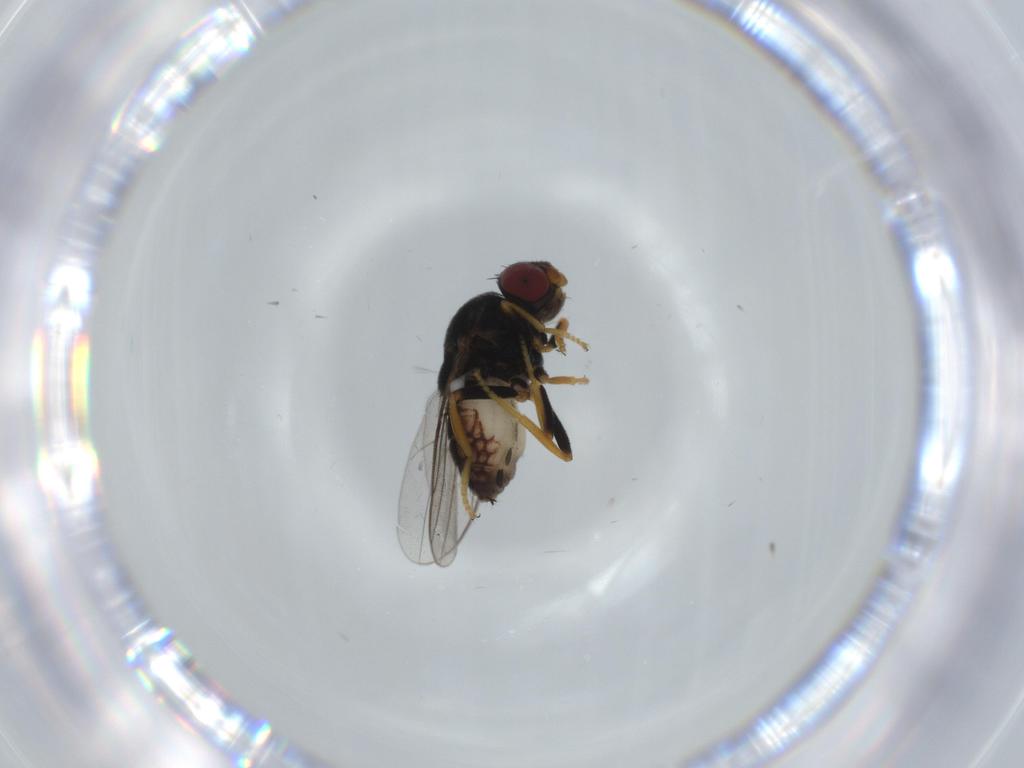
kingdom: Animalia
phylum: Arthropoda
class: Insecta
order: Diptera
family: Chloropidae
